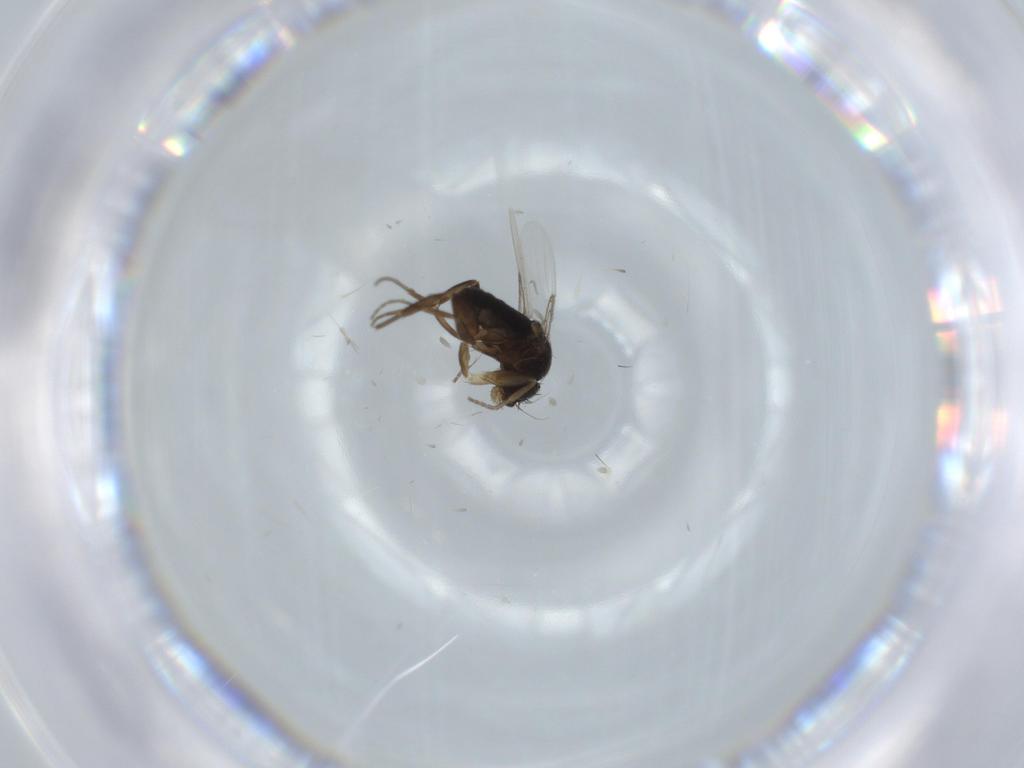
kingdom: Animalia
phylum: Arthropoda
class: Insecta
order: Diptera
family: Phoridae
